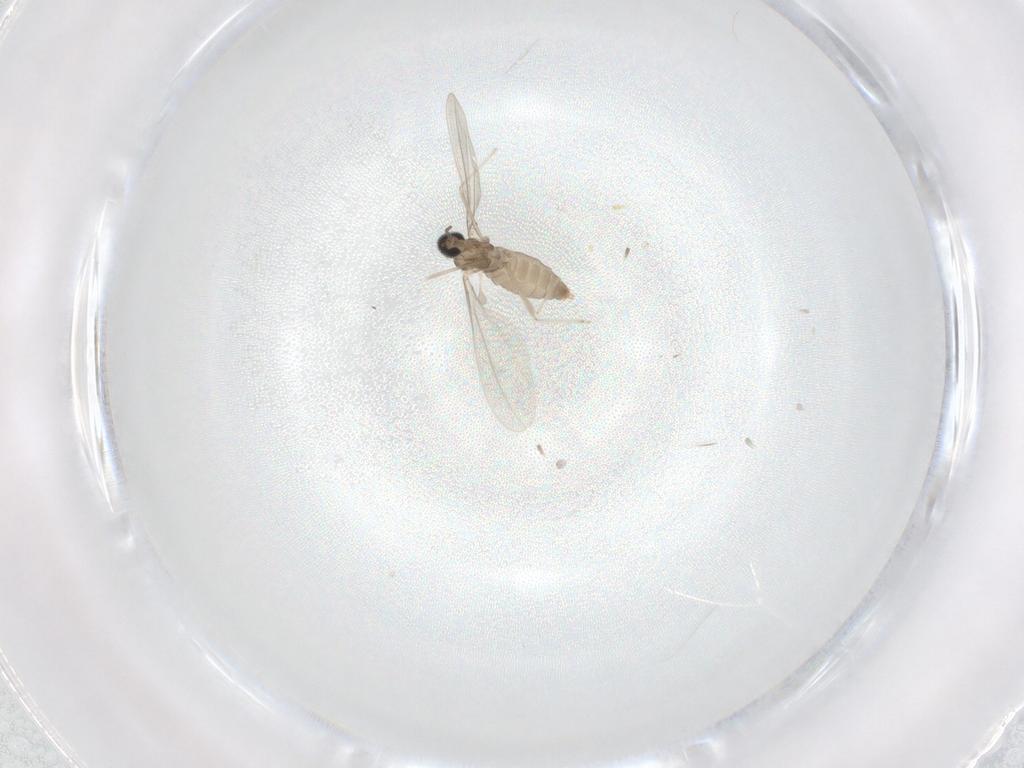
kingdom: Animalia
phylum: Arthropoda
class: Insecta
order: Diptera
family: Cecidomyiidae
